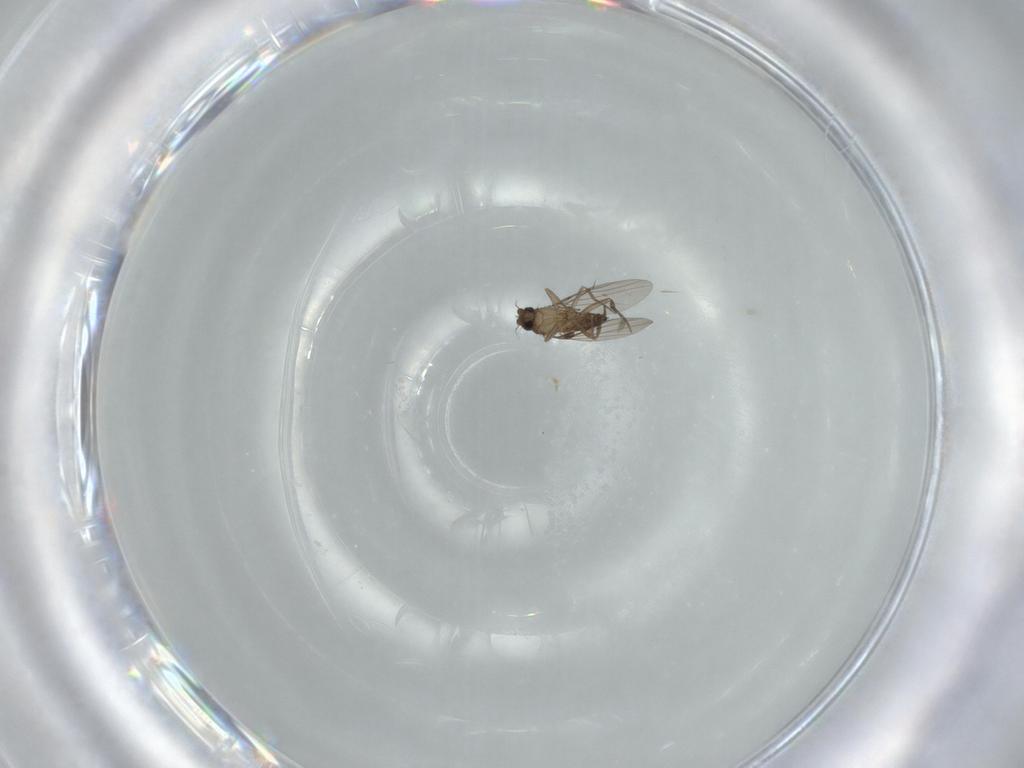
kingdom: Animalia
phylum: Arthropoda
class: Insecta
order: Diptera
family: Phoridae
